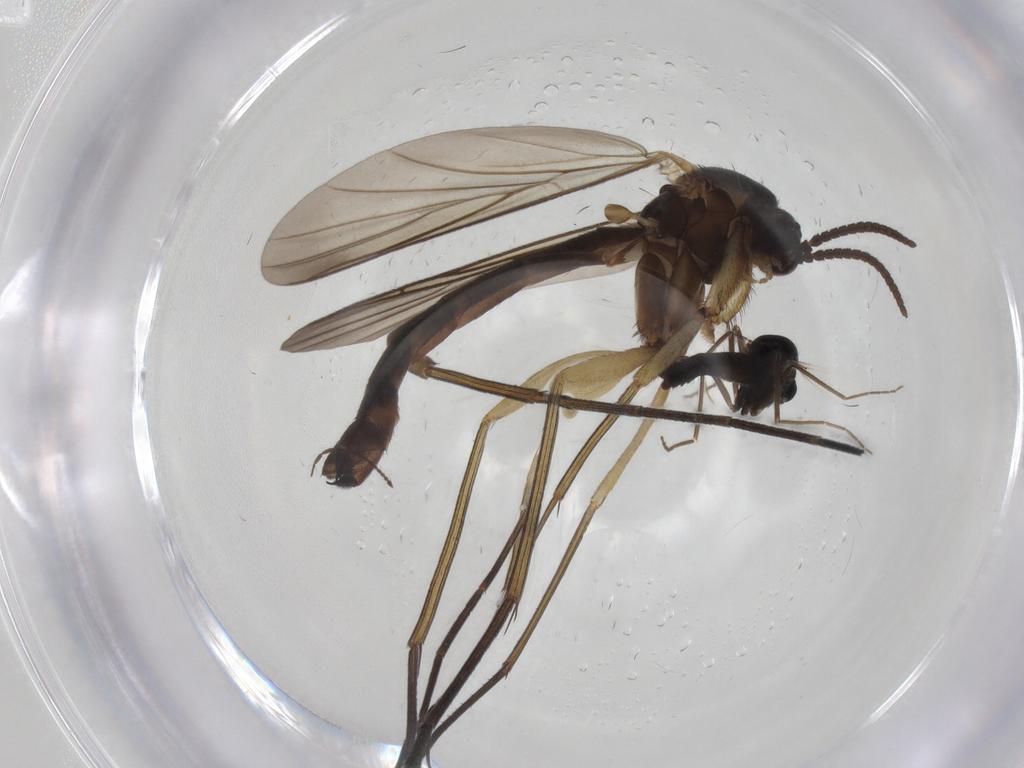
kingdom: Animalia
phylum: Arthropoda
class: Insecta
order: Diptera
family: Keroplatidae
